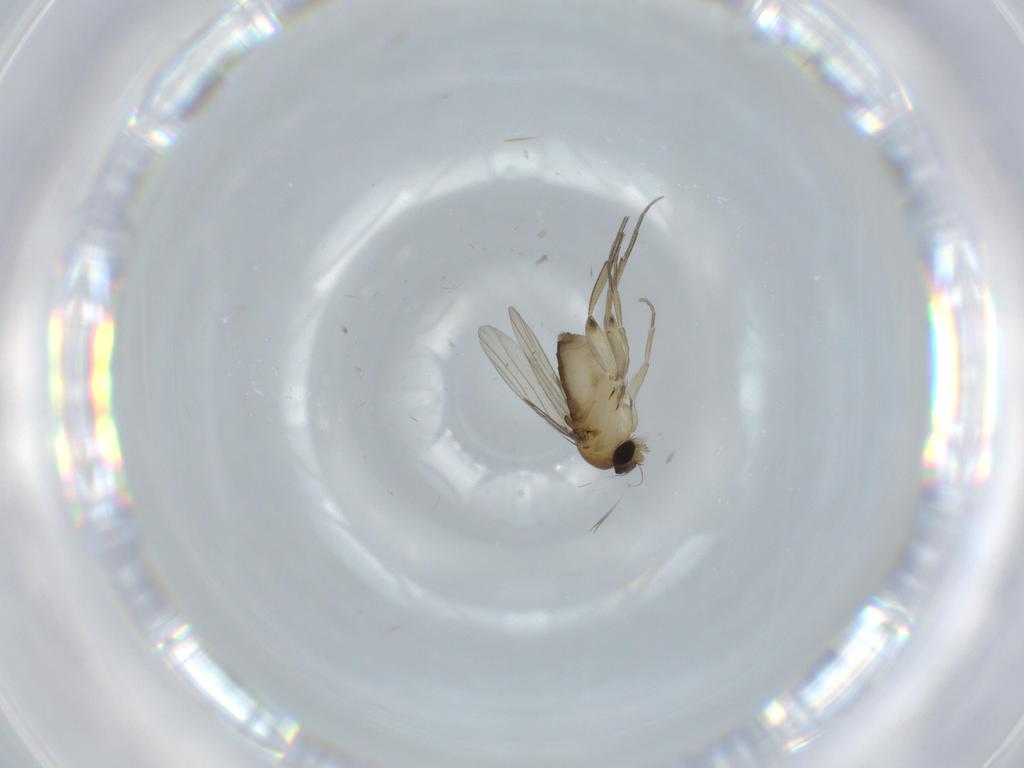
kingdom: Animalia
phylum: Arthropoda
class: Insecta
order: Diptera
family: Phoridae
